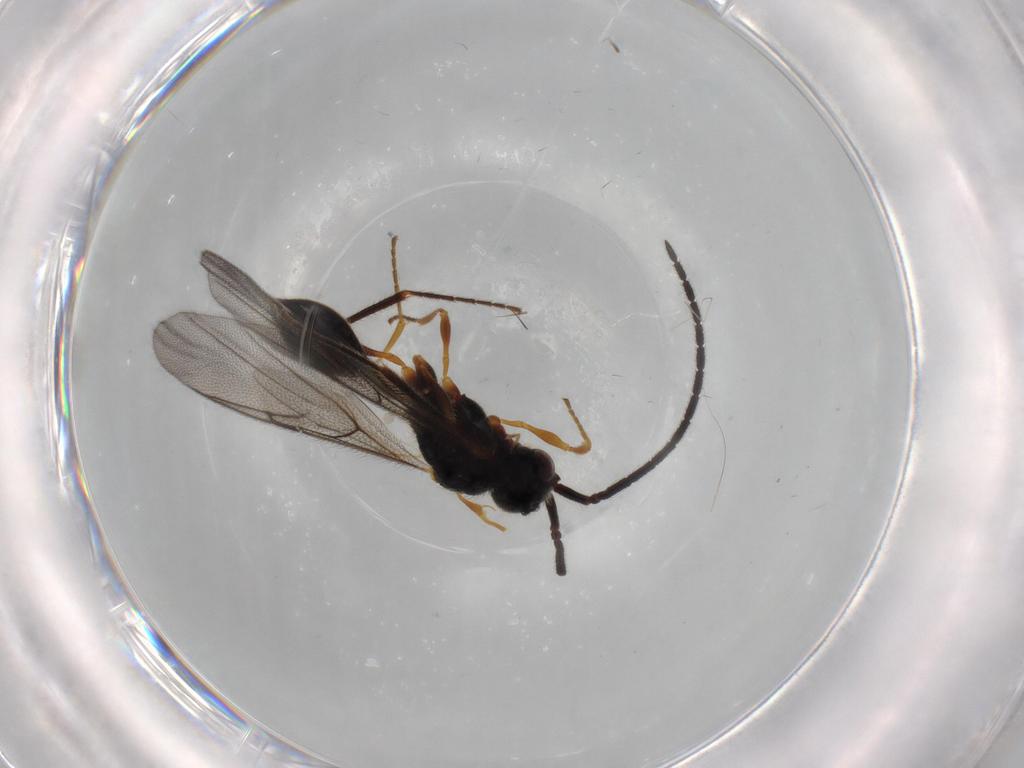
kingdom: Animalia
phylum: Arthropoda
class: Insecta
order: Hymenoptera
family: Diapriidae
